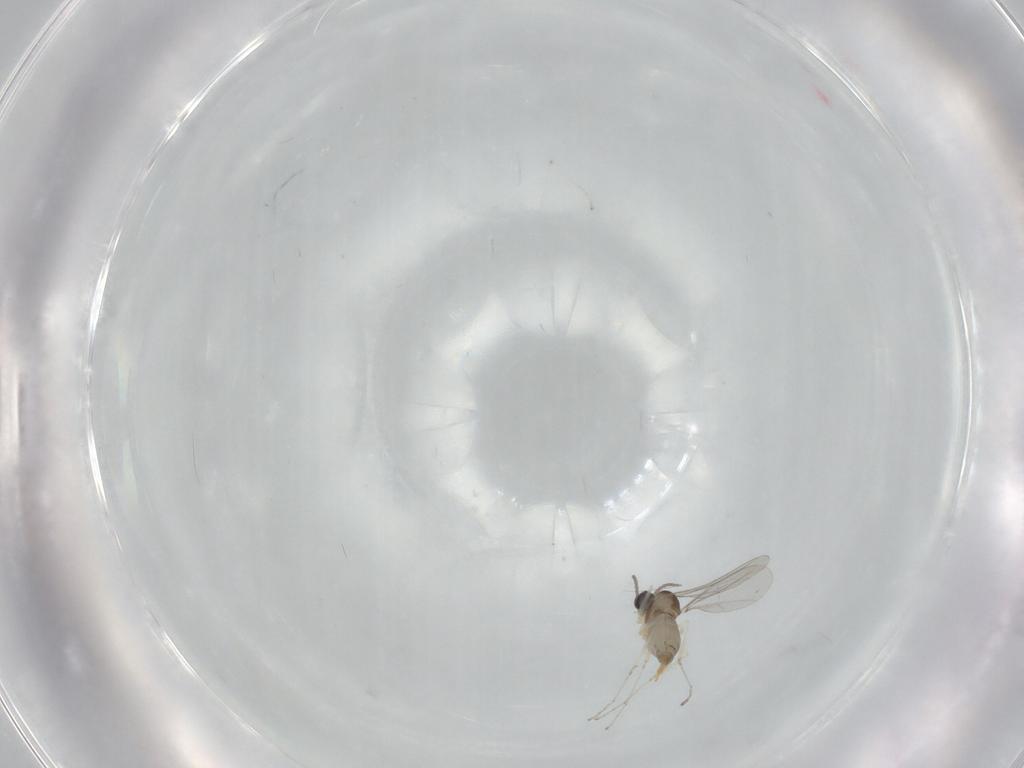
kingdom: Animalia
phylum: Arthropoda
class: Insecta
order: Diptera
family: Cecidomyiidae
